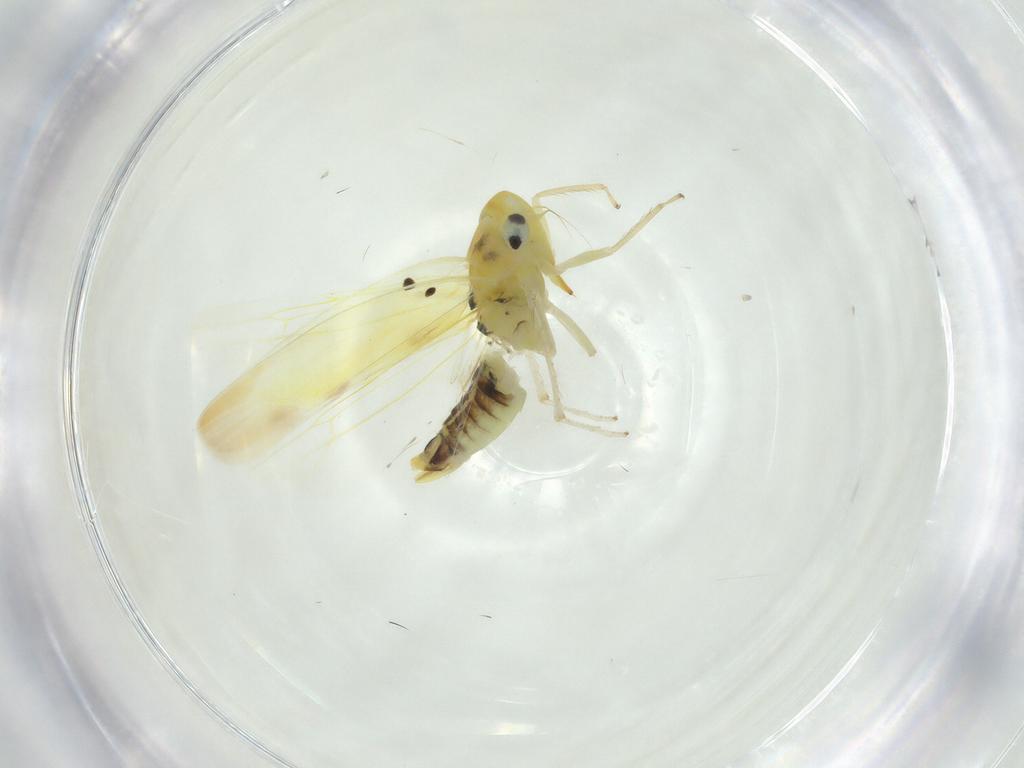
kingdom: Animalia
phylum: Arthropoda
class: Insecta
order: Hemiptera
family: Cicadellidae
